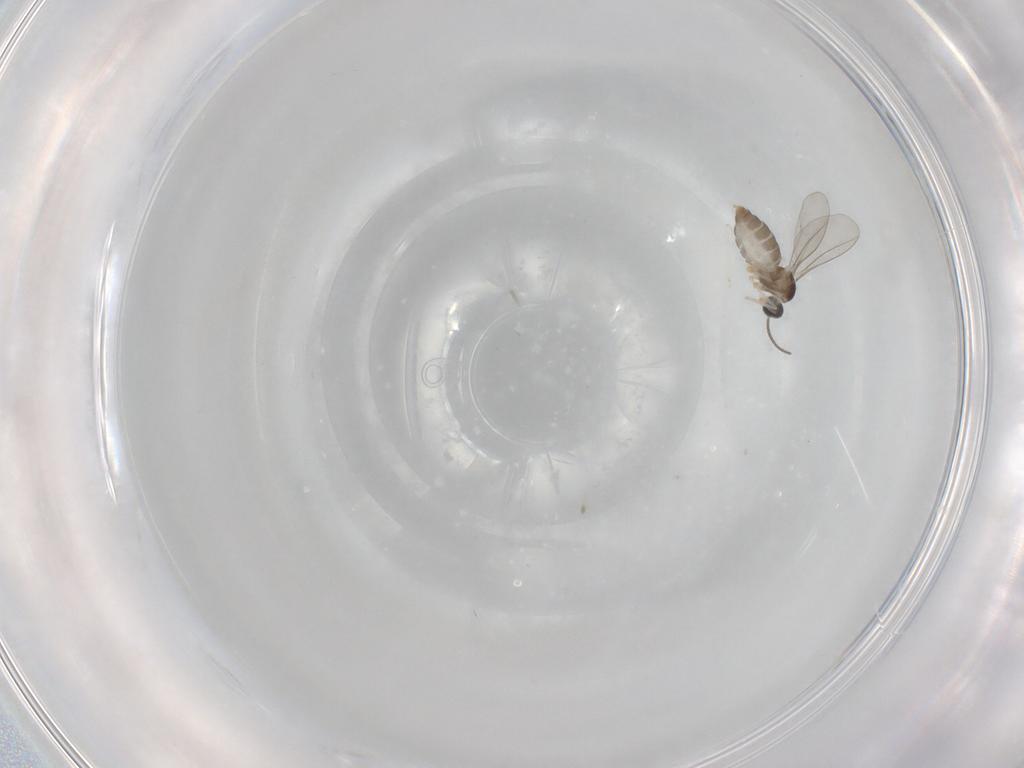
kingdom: Animalia
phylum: Arthropoda
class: Insecta
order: Diptera
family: Cecidomyiidae
